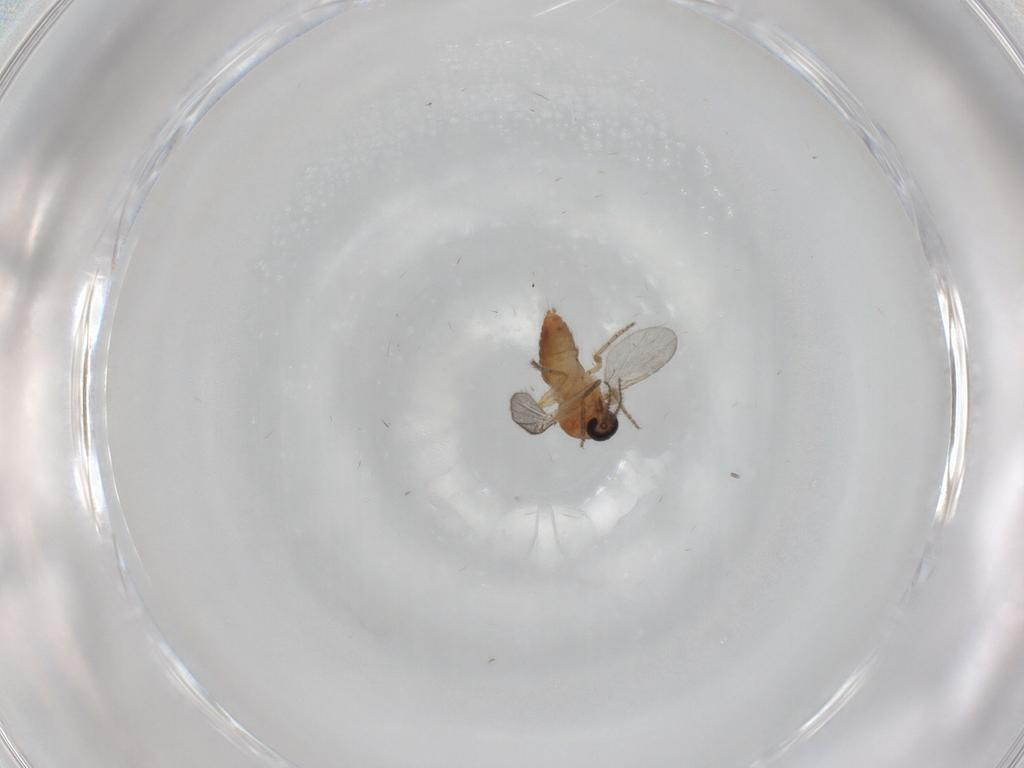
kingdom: Animalia
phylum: Arthropoda
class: Insecta
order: Diptera
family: Ceratopogonidae
